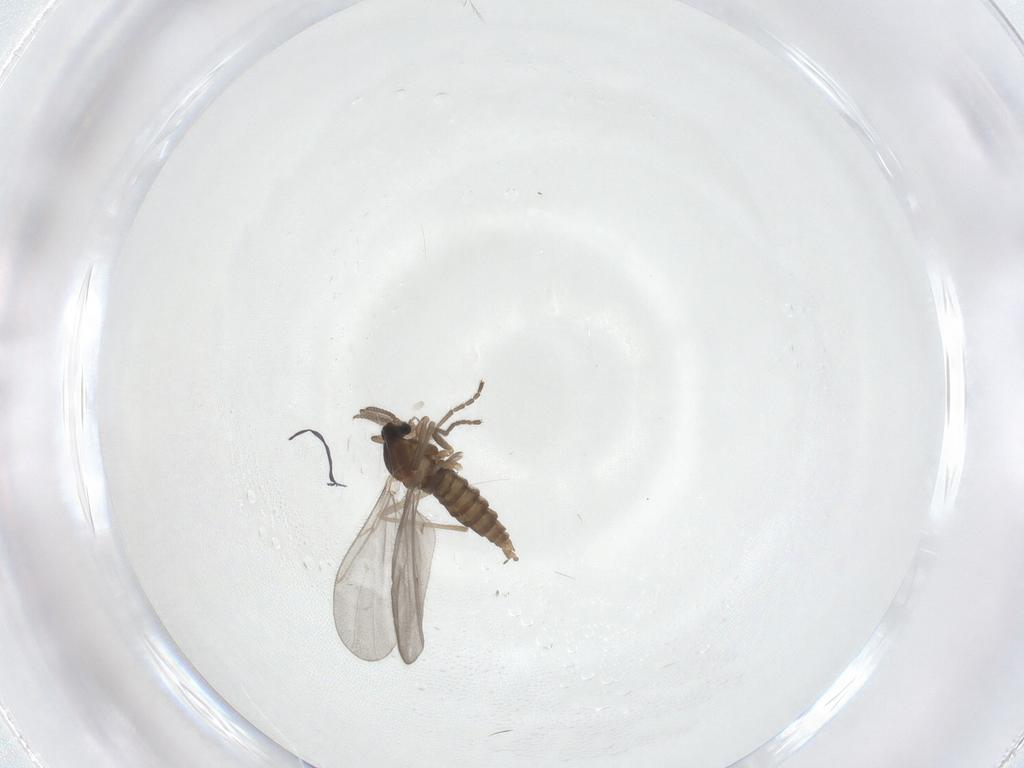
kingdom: Animalia
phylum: Arthropoda
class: Insecta
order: Diptera
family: Cecidomyiidae
